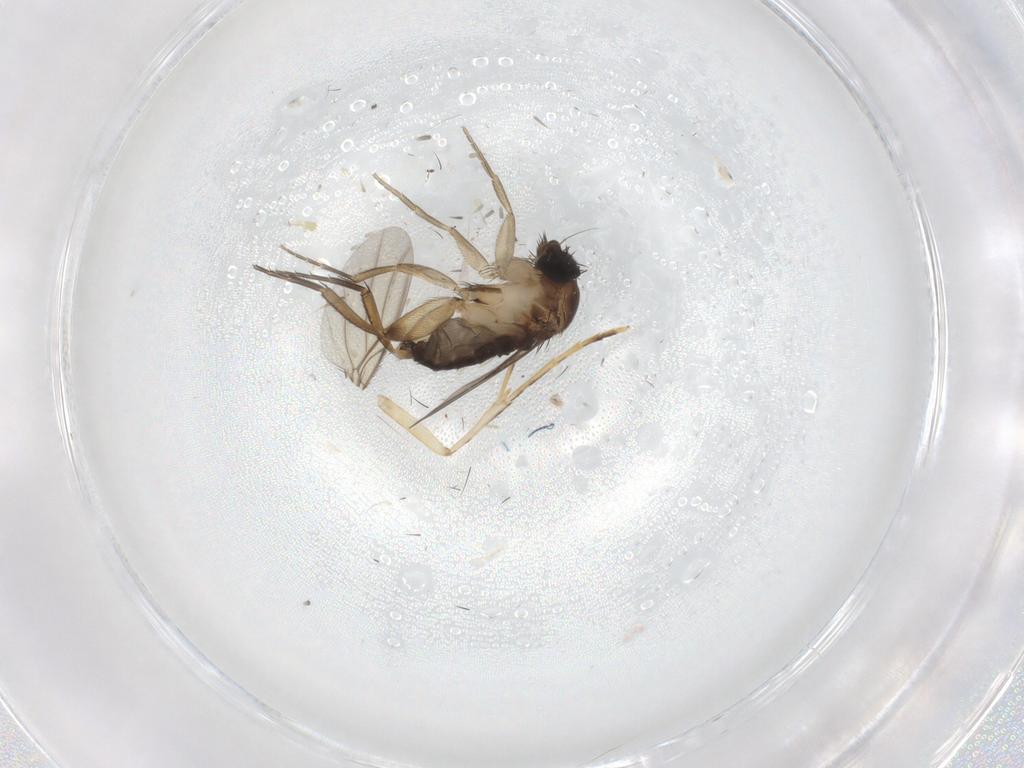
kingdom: Animalia
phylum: Arthropoda
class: Insecta
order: Diptera
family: Phoridae
